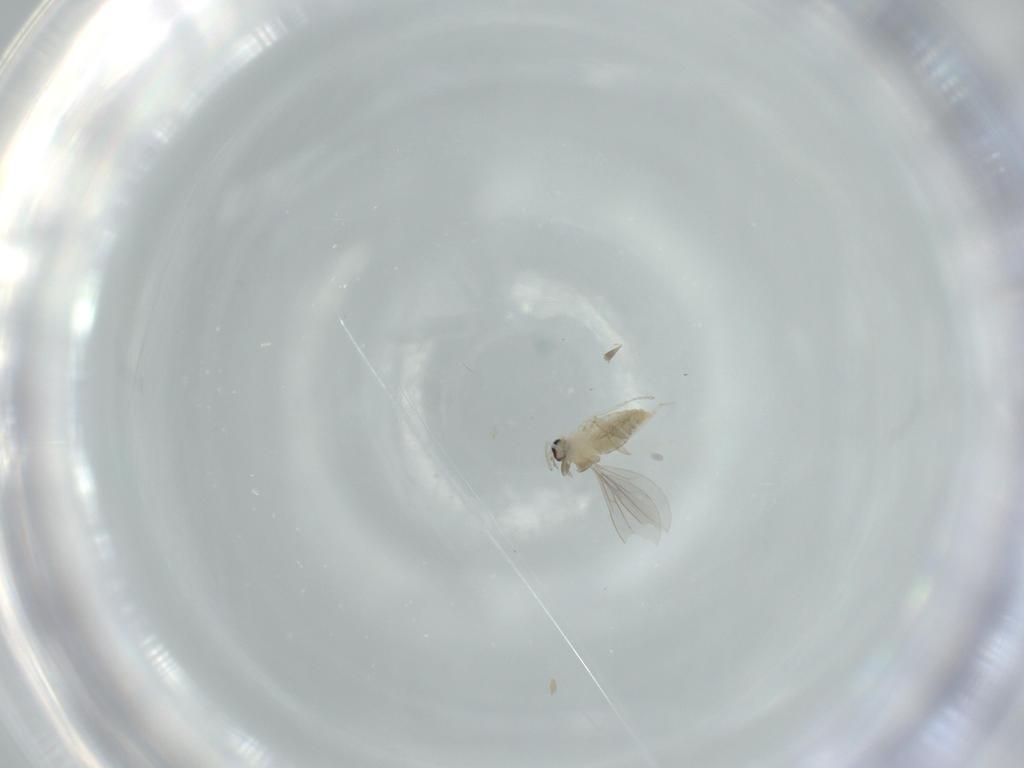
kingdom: Animalia
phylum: Arthropoda
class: Insecta
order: Diptera
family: Cecidomyiidae
